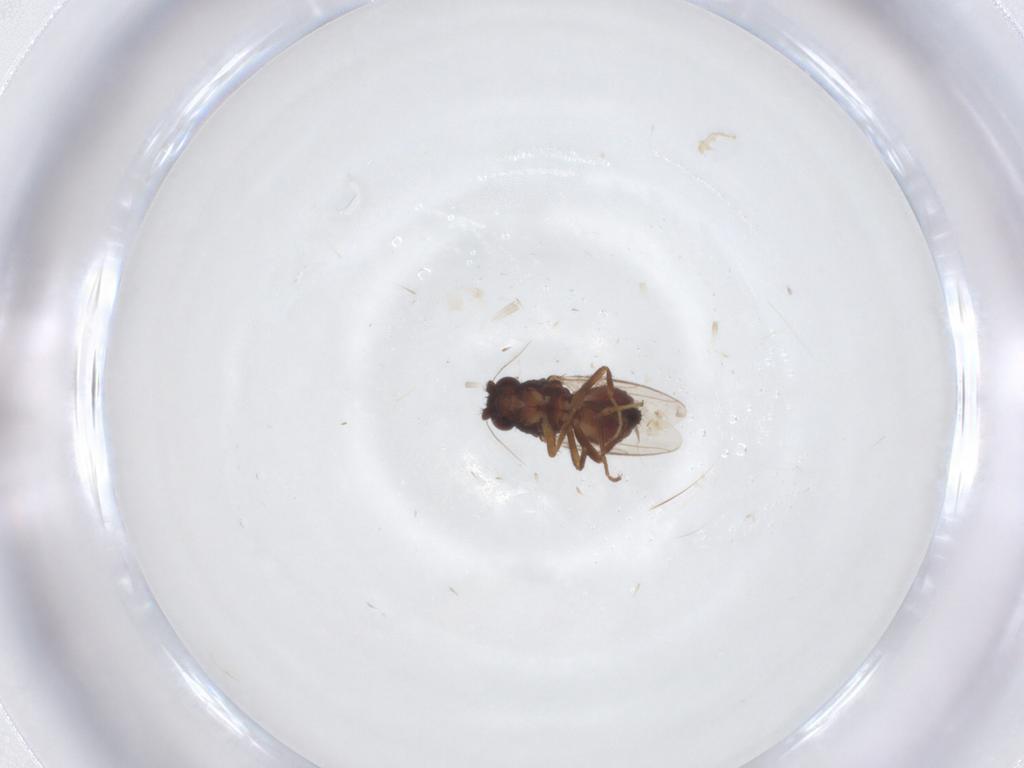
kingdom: Animalia
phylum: Arthropoda
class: Insecta
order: Diptera
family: Sphaeroceridae
